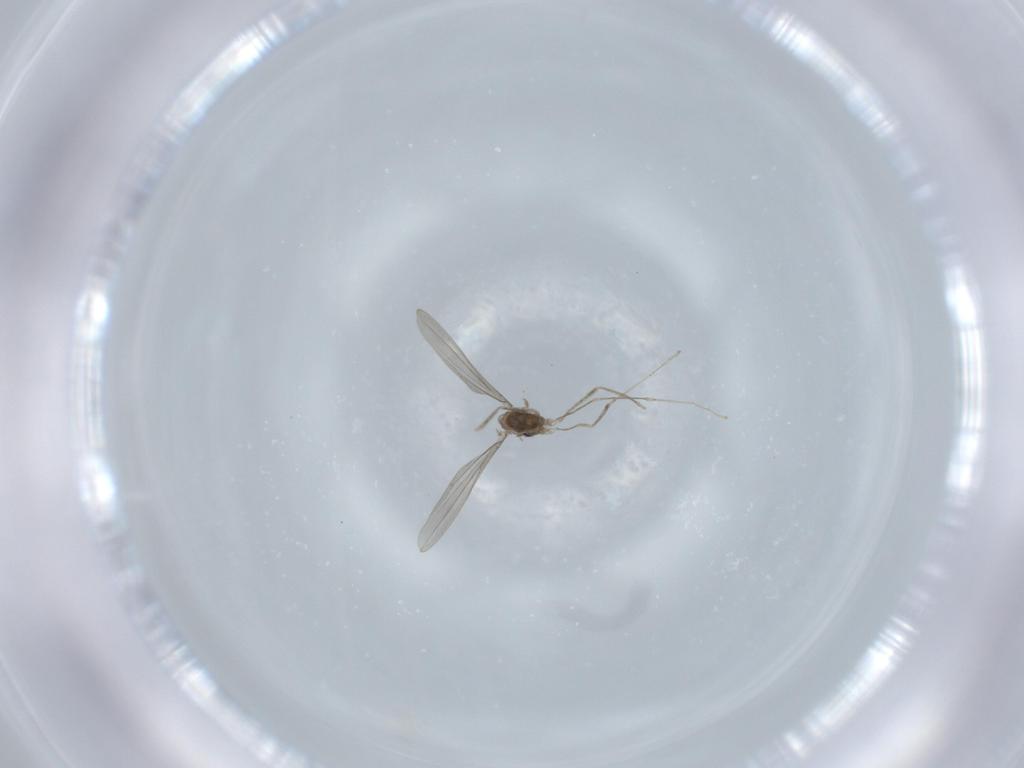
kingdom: Animalia
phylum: Arthropoda
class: Insecta
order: Diptera
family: Cecidomyiidae
